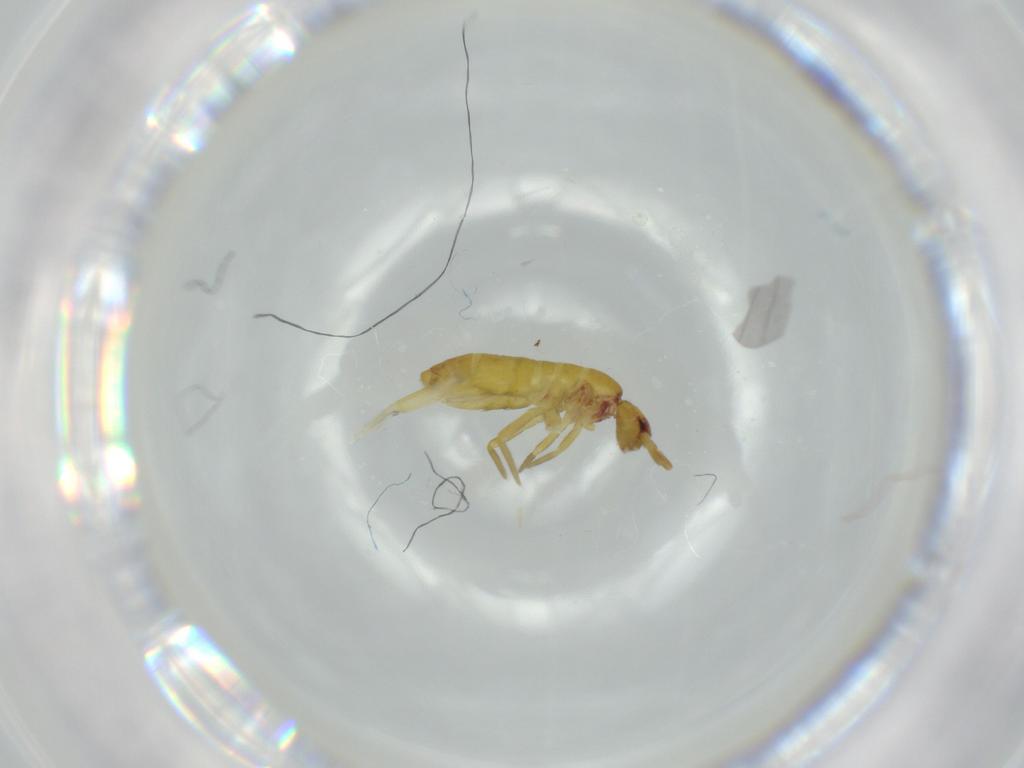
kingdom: Animalia
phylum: Arthropoda
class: Collembola
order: Entomobryomorpha
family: Tomoceridae
